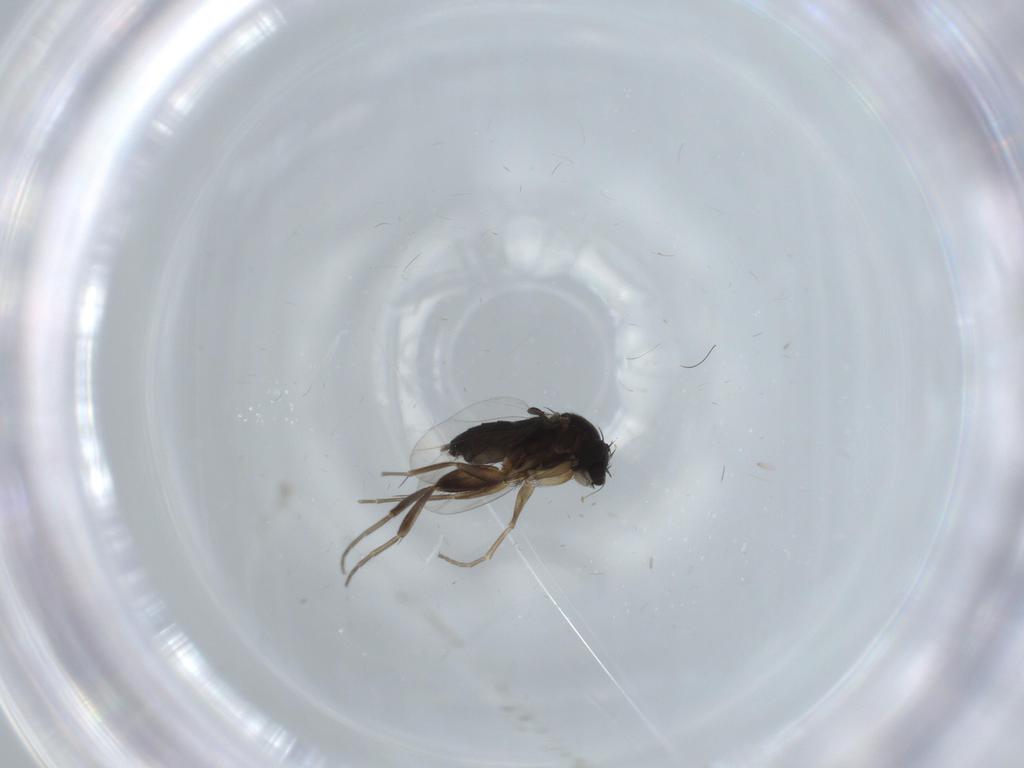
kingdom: Animalia
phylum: Arthropoda
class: Insecta
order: Diptera
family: Phoridae
